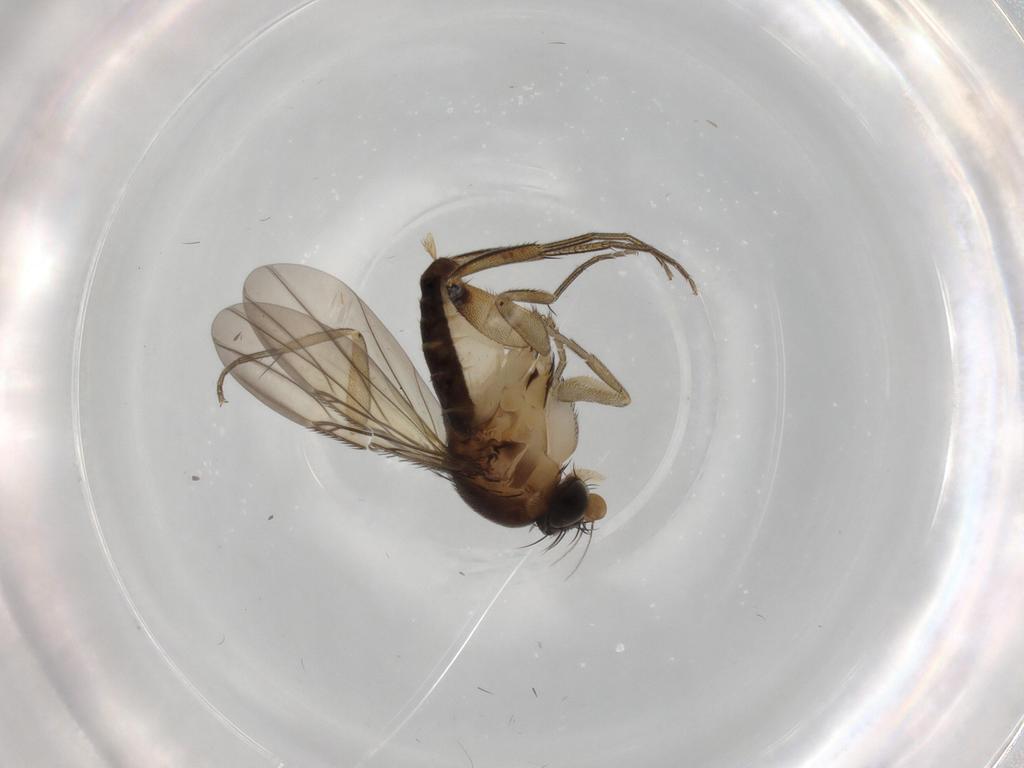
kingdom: Animalia
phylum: Arthropoda
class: Insecta
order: Diptera
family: Phoridae
